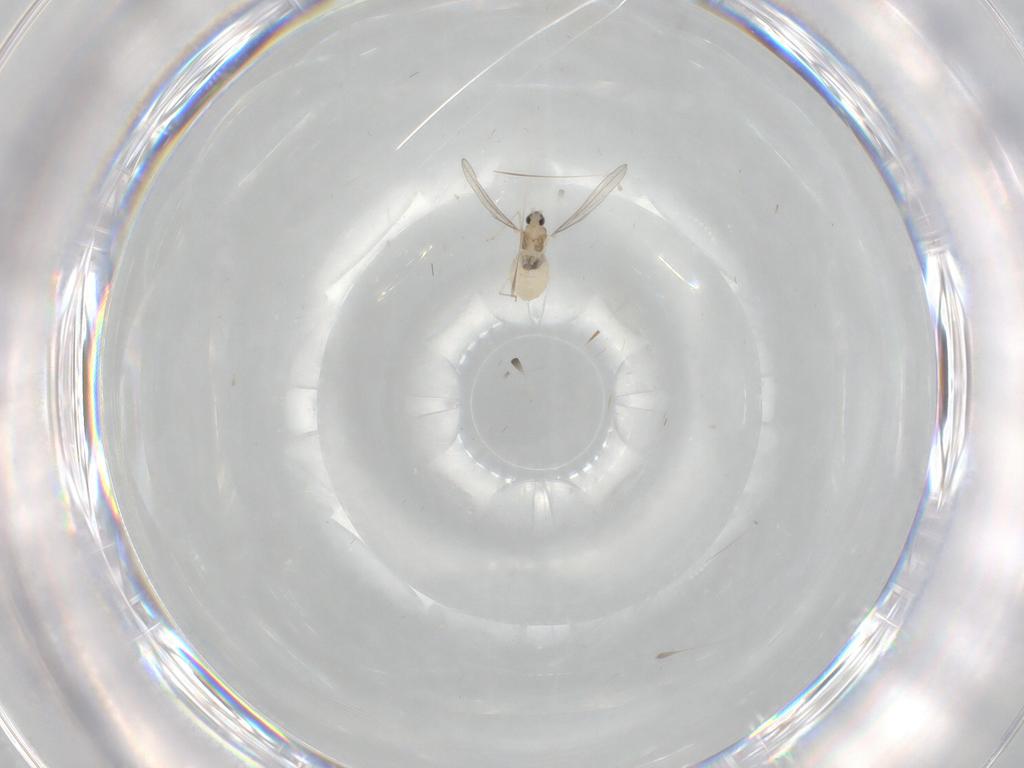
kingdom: Animalia
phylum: Arthropoda
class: Insecta
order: Diptera
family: Cecidomyiidae
